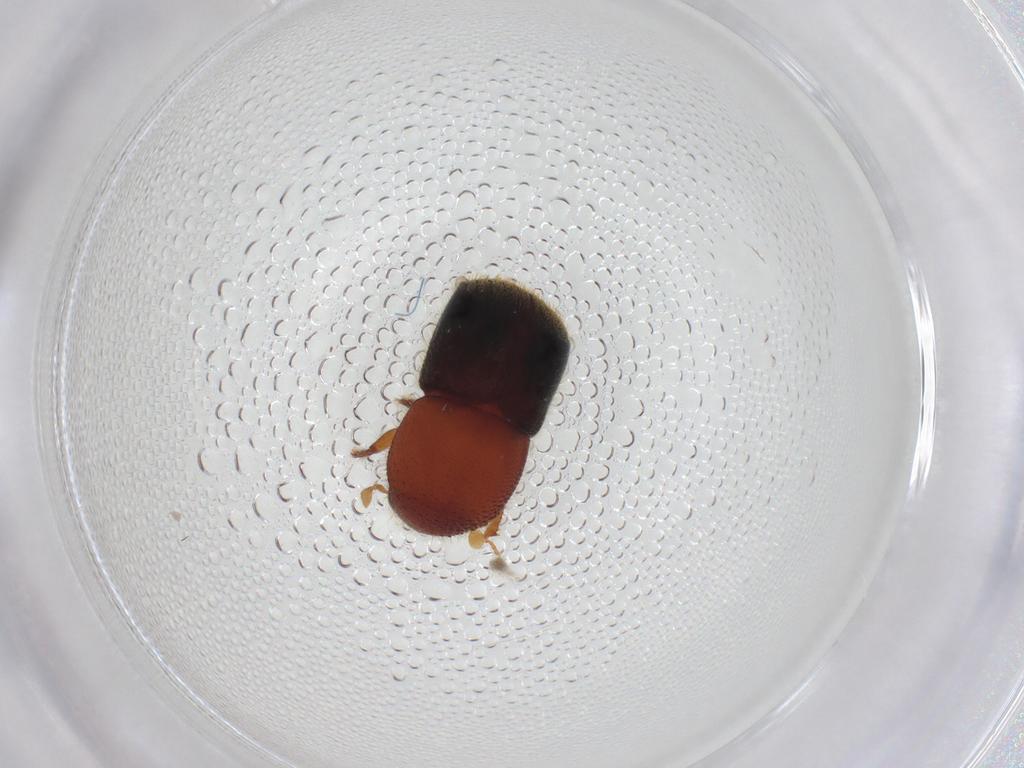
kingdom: Animalia
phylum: Arthropoda
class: Insecta
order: Coleoptera
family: Curculionidae
